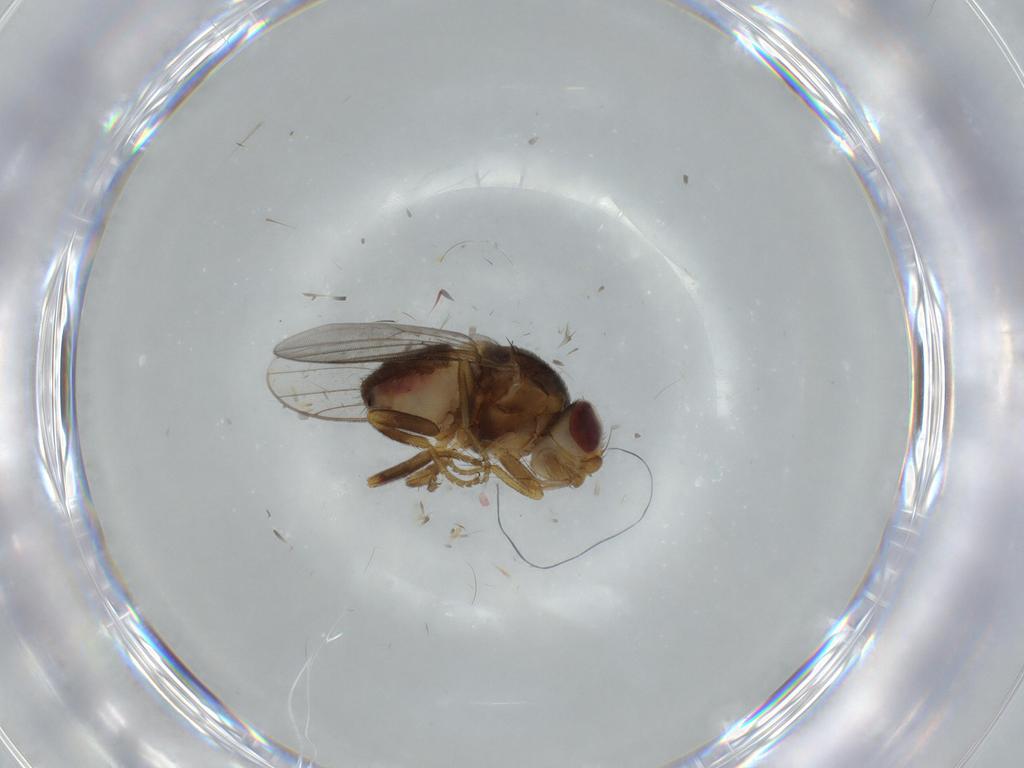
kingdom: Animalia
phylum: Arthropoda
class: Insecta
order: Diptera
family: Chloropidae
